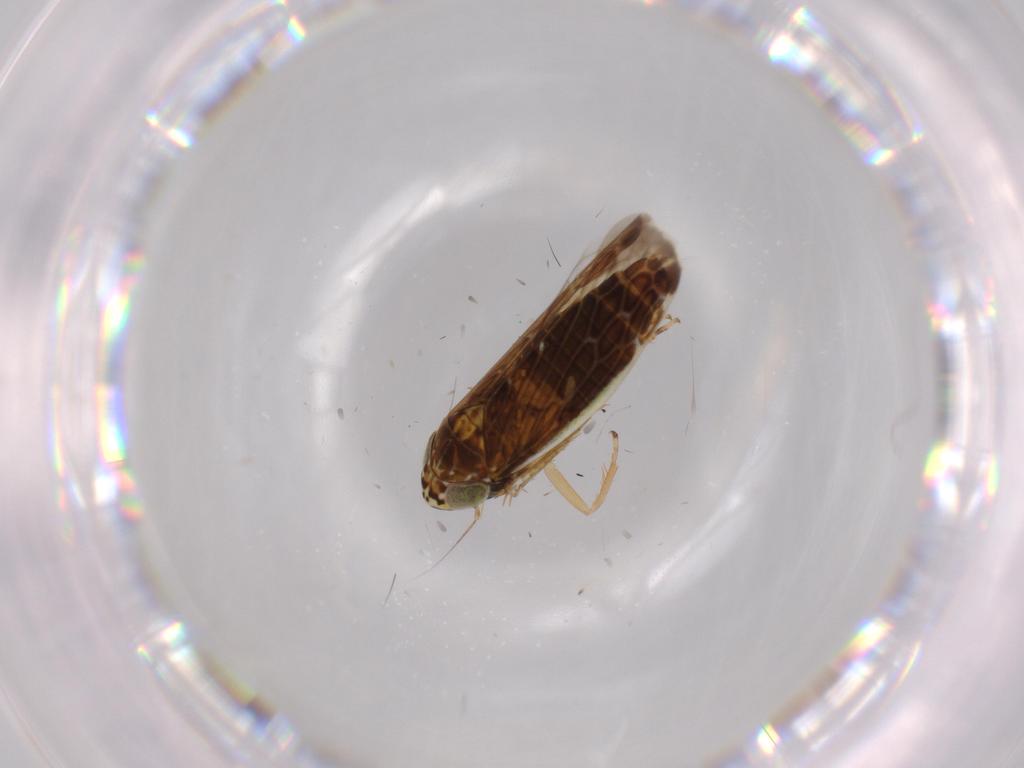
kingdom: Animalia
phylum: Arthropoda
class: Insecta
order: Hemiptera
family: Cicadellidae
